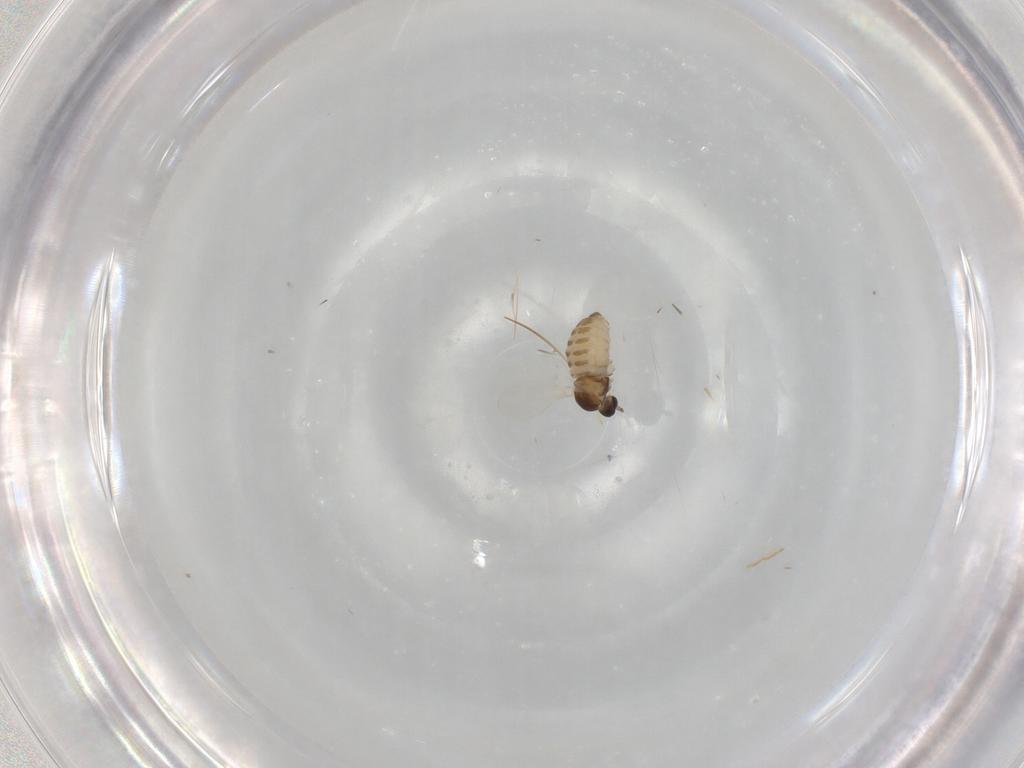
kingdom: Animalia
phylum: Arthropoda
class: Insecta
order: Diptera
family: Cecidomyiidae
